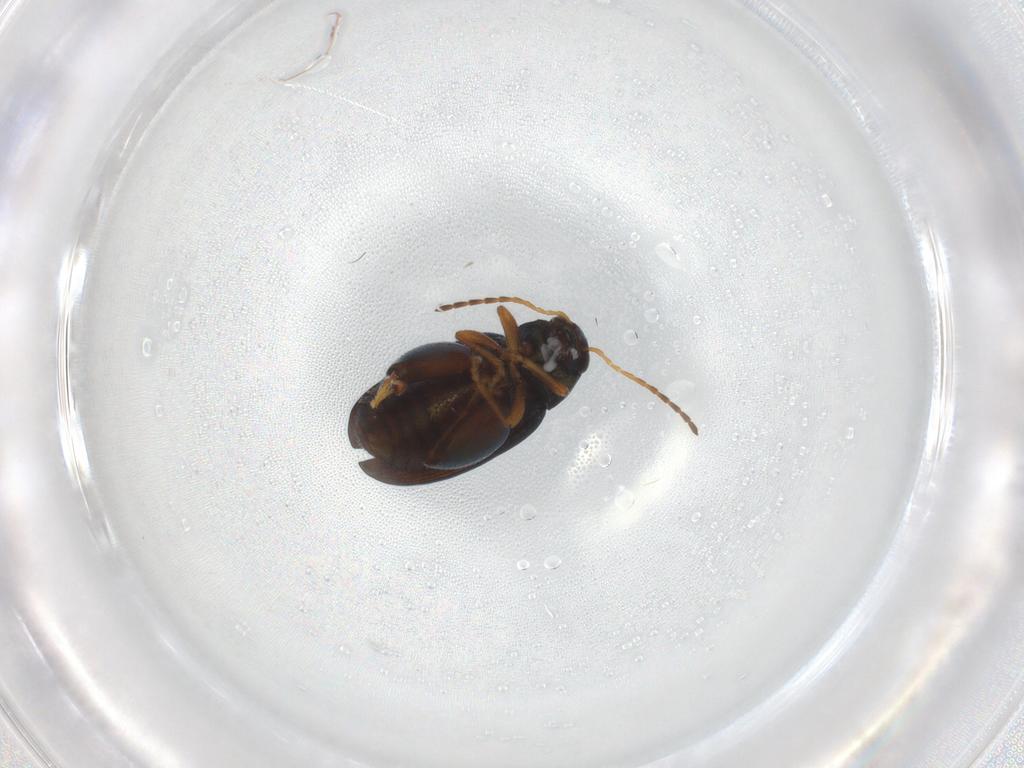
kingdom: Animalia
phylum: Arthropoda
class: Insecta
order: Coleoptera
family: Chrysomelidae
